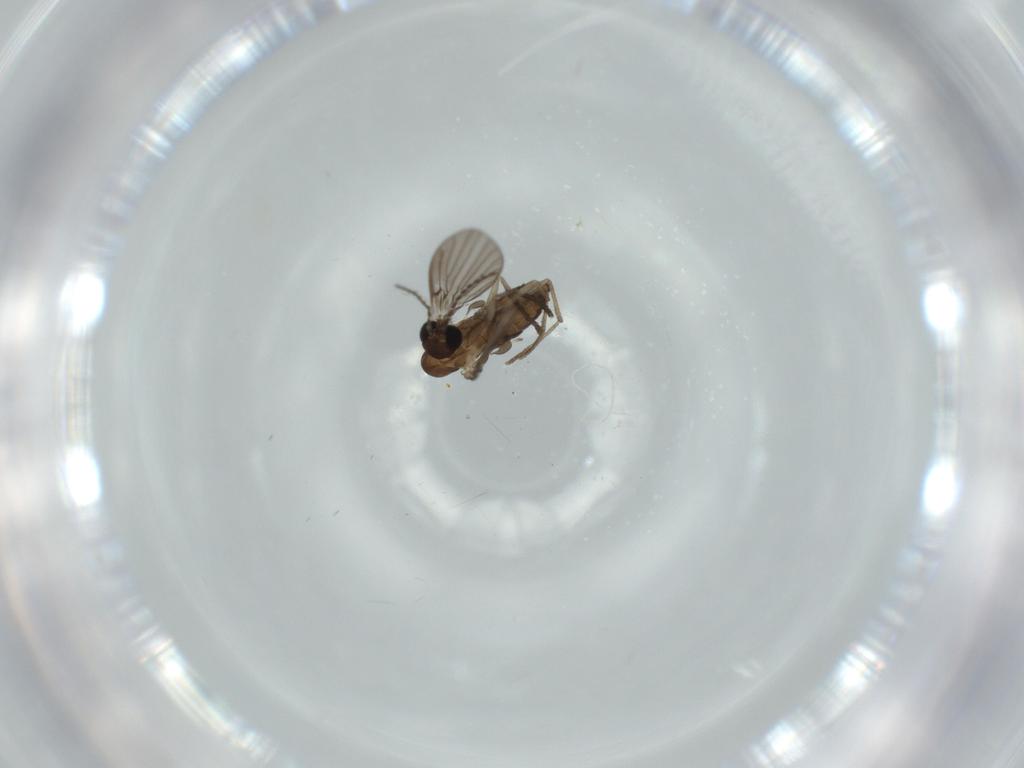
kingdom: Animalia
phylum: Arthropoda
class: Insecta
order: Diptera
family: Psychodidae
